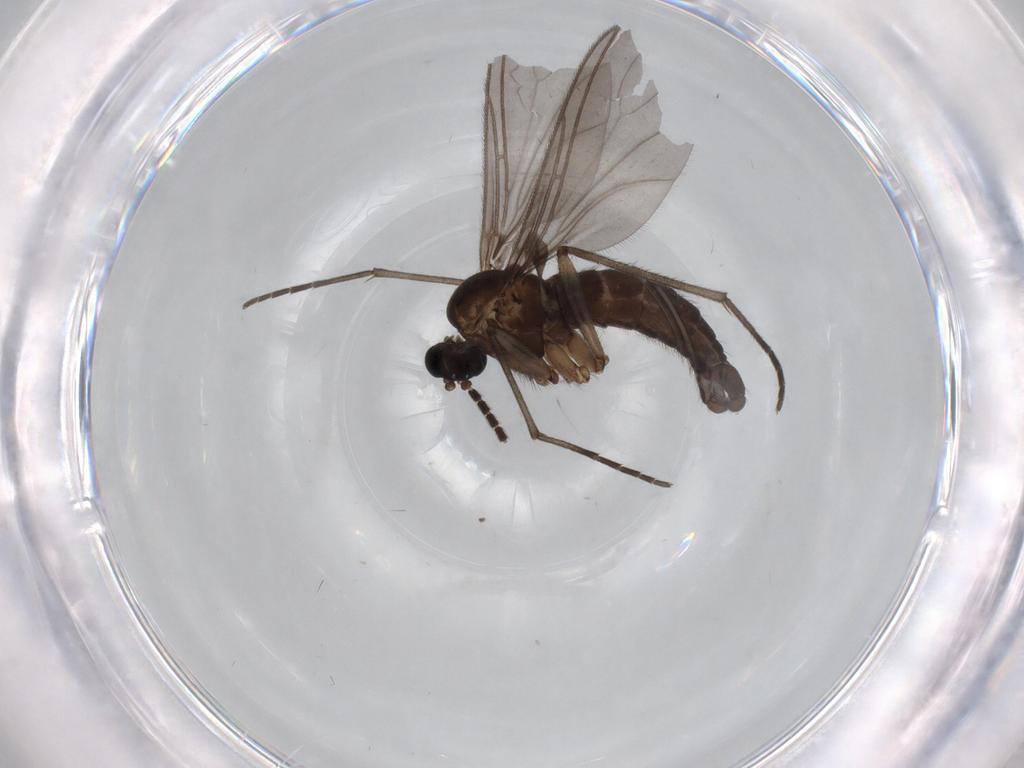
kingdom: Animalia
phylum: Arthropoda
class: Insecta
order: Diptera
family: Sciaridae
